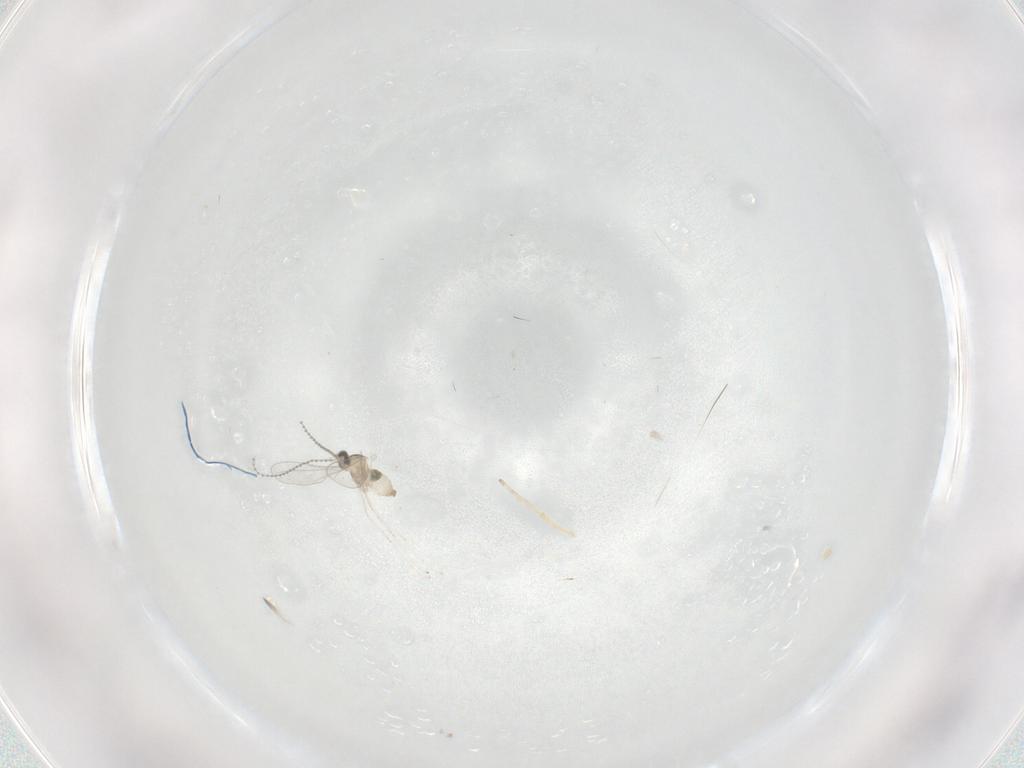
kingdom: Animalia
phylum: Arthropoda
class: Insecta
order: Diptera
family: Cecidomyiidae
